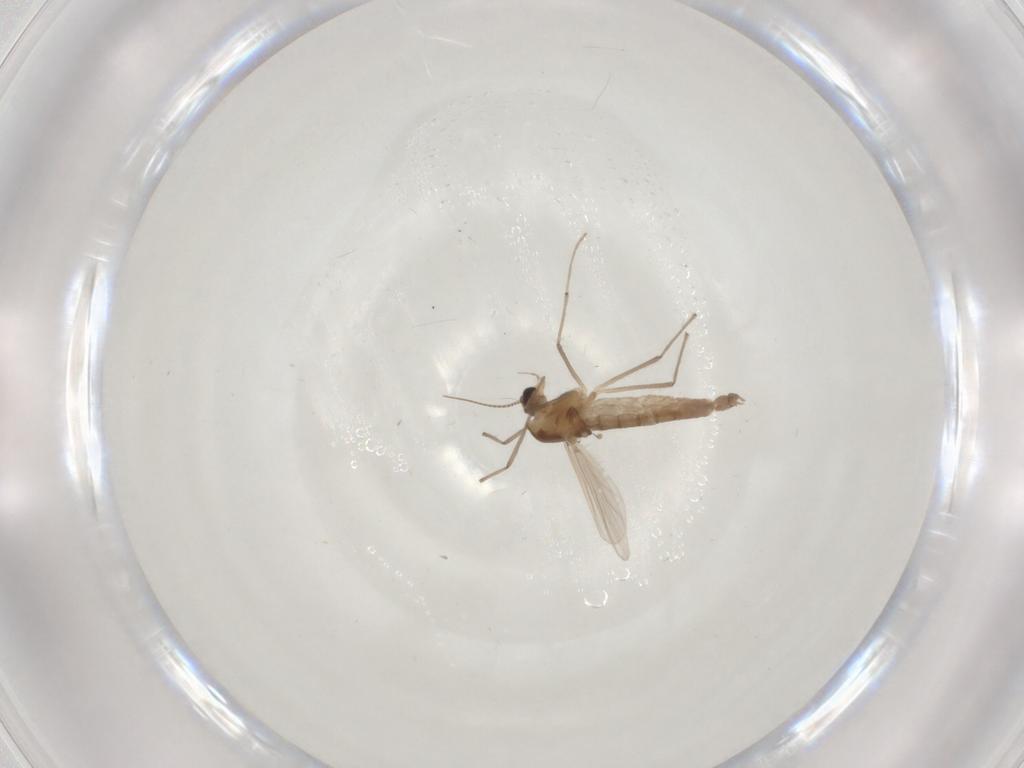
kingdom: Animalia
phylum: Arthropoda
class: Insecta
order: Diptera
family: Chironomidae
